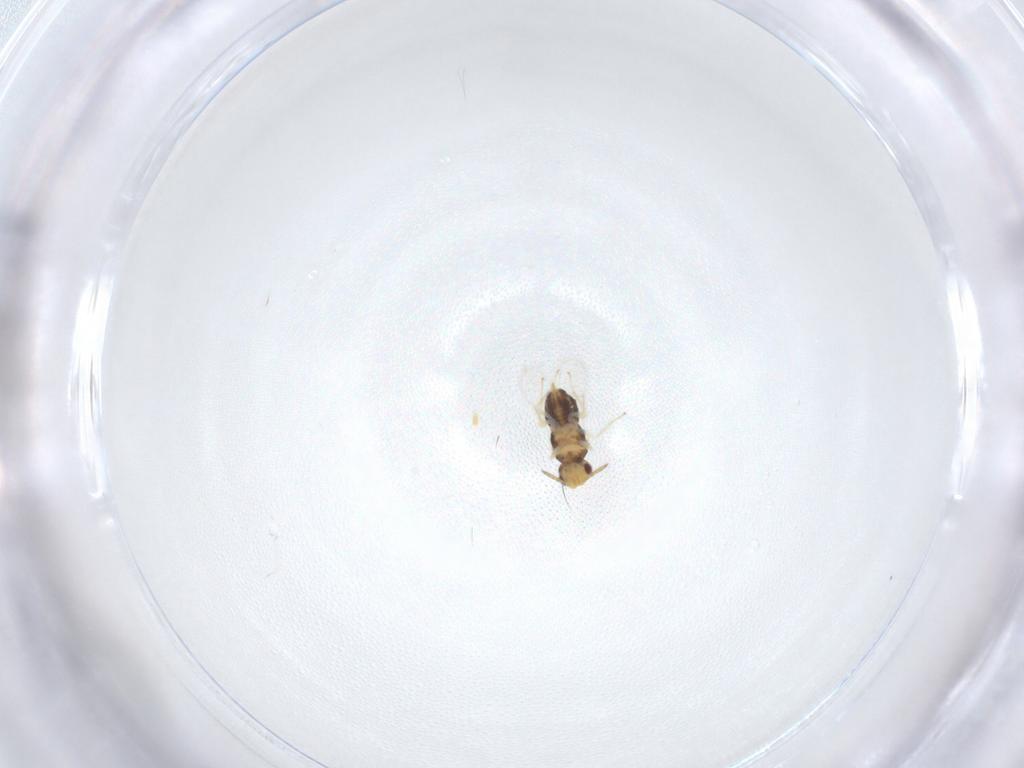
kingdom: Animalia
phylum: Arthropoda
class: Insecta
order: Hymenoptera
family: Aphelinidae
